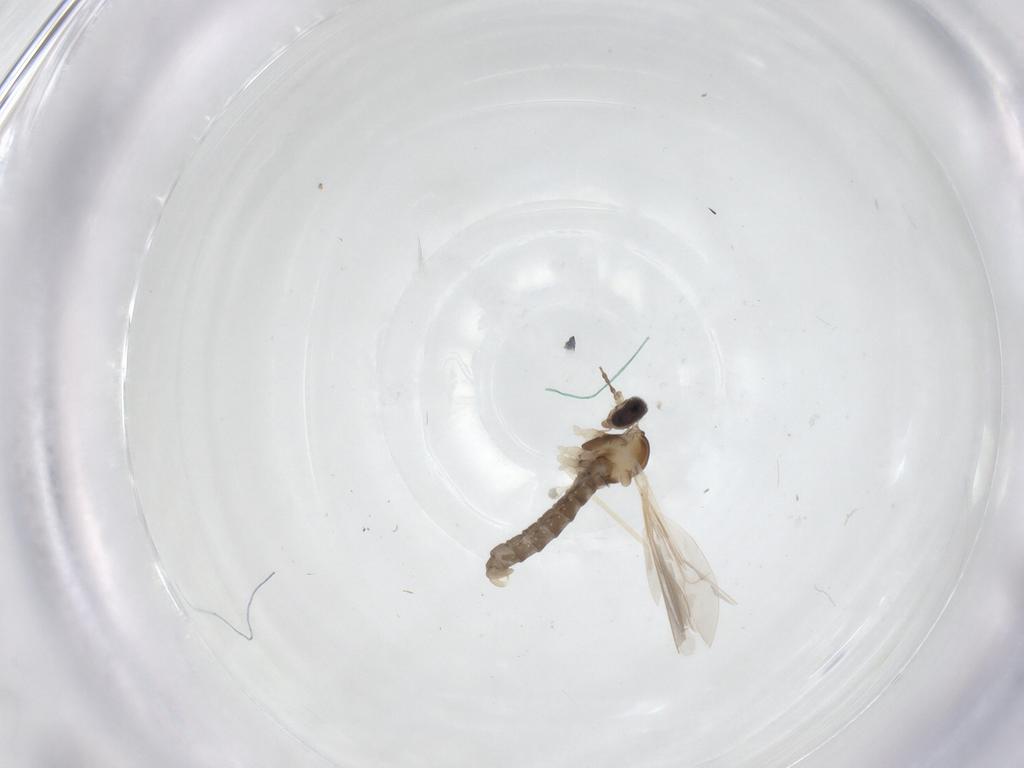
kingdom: Animalia
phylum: Arthropoda
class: Insecta
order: Diptera
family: Cecidomyiidae
